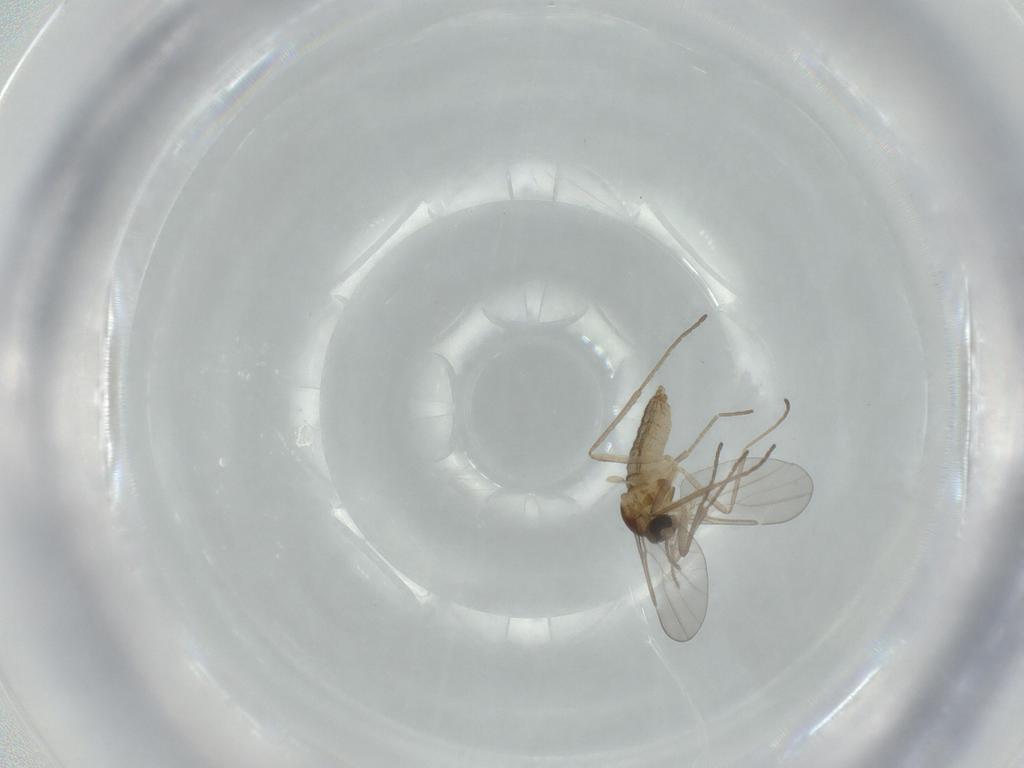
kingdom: Animalia
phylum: Arthropoda
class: Insecta
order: Diptera
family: Cecidomyiidae
